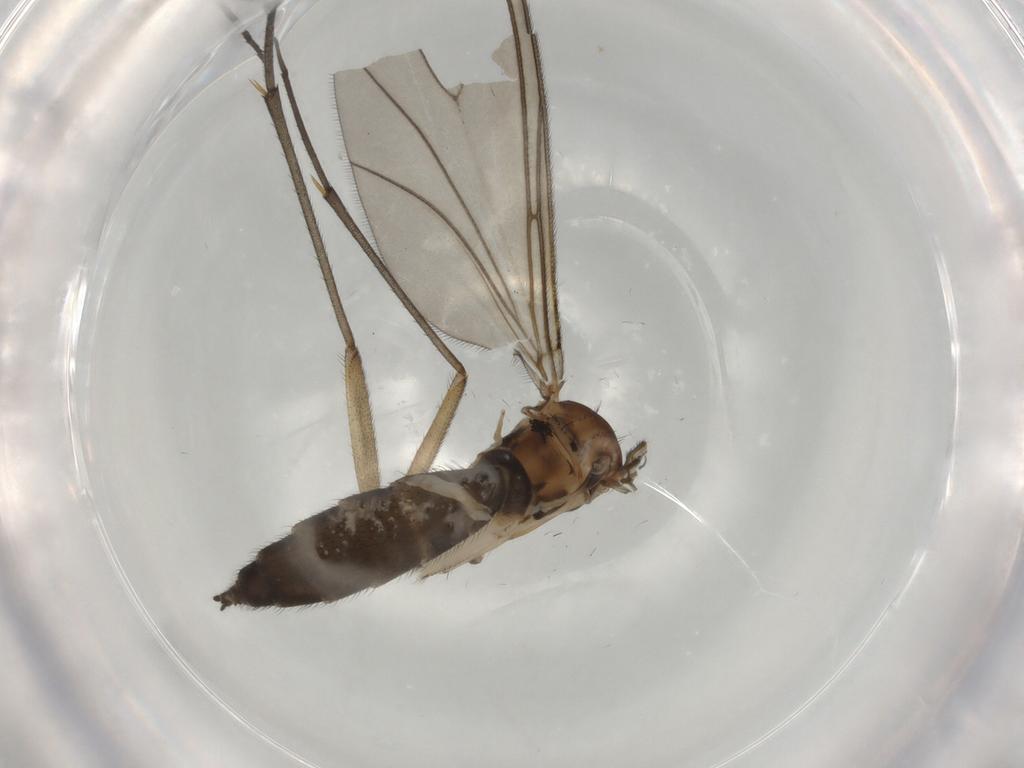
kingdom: Animalia
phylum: Arthropoda
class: Insecta
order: Diptera
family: Sciaridae
